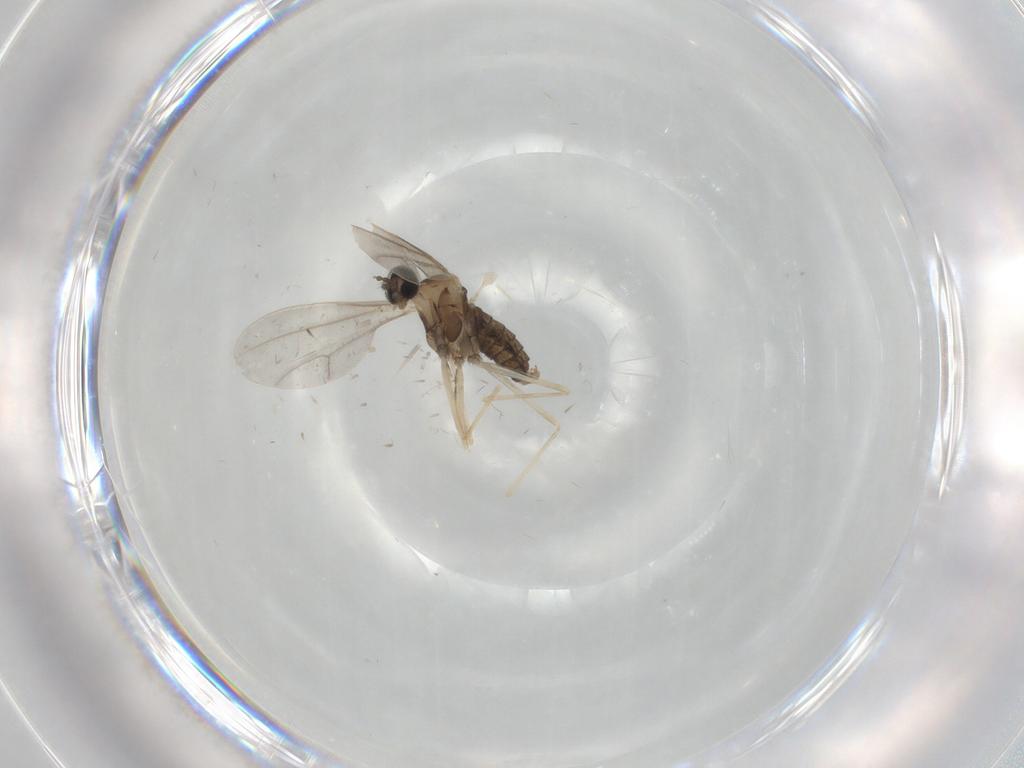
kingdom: Animalia
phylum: Arthropoda
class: Insecta
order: Diptera
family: Cecidomyiidae
